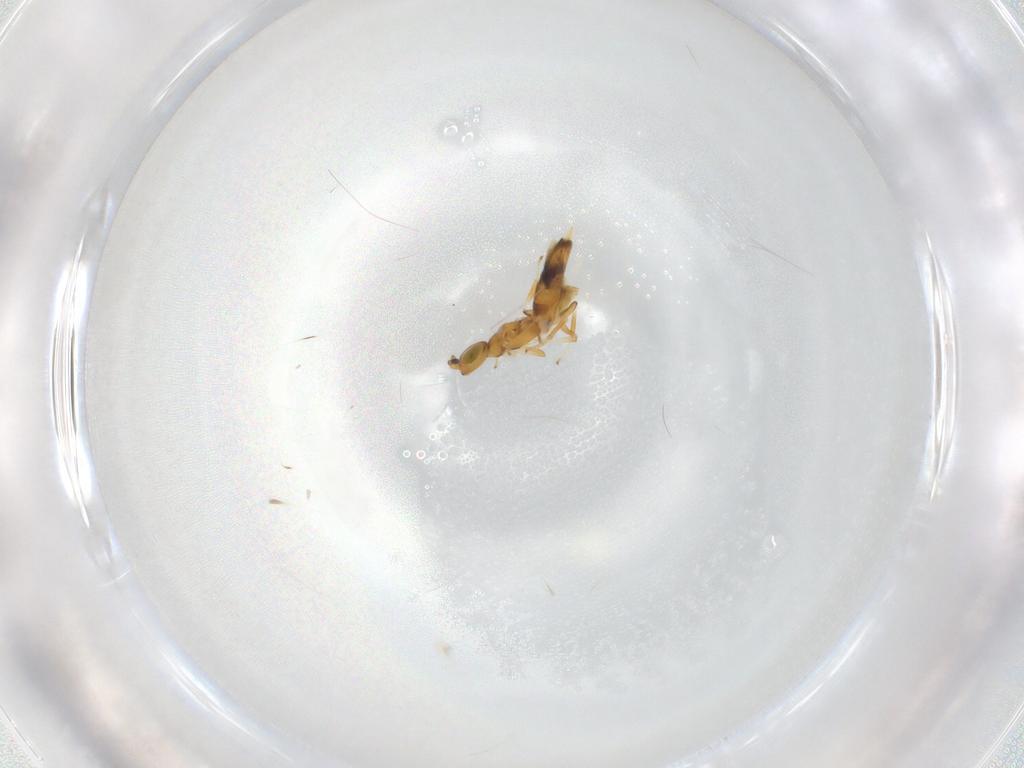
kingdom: Animalia
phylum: Arthropoda
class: Insecta
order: Hymenoptera
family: Encyrtidae
